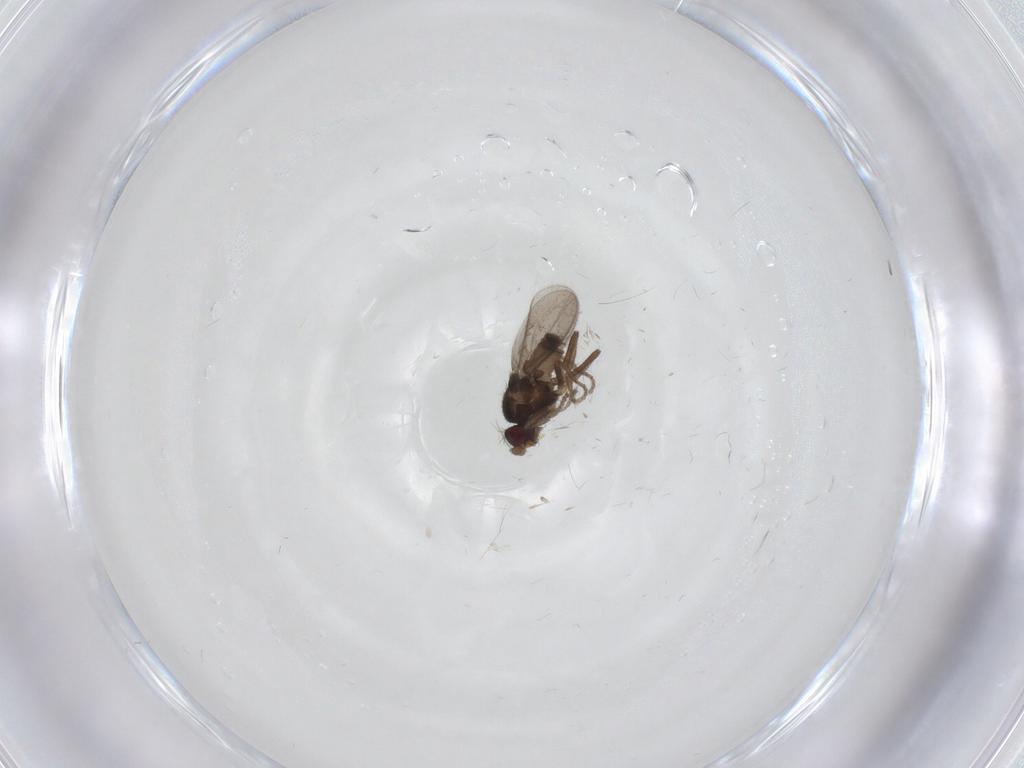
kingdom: Animalia
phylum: Arthropoda
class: Insecta
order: Diptera
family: Sphaeroceridae
